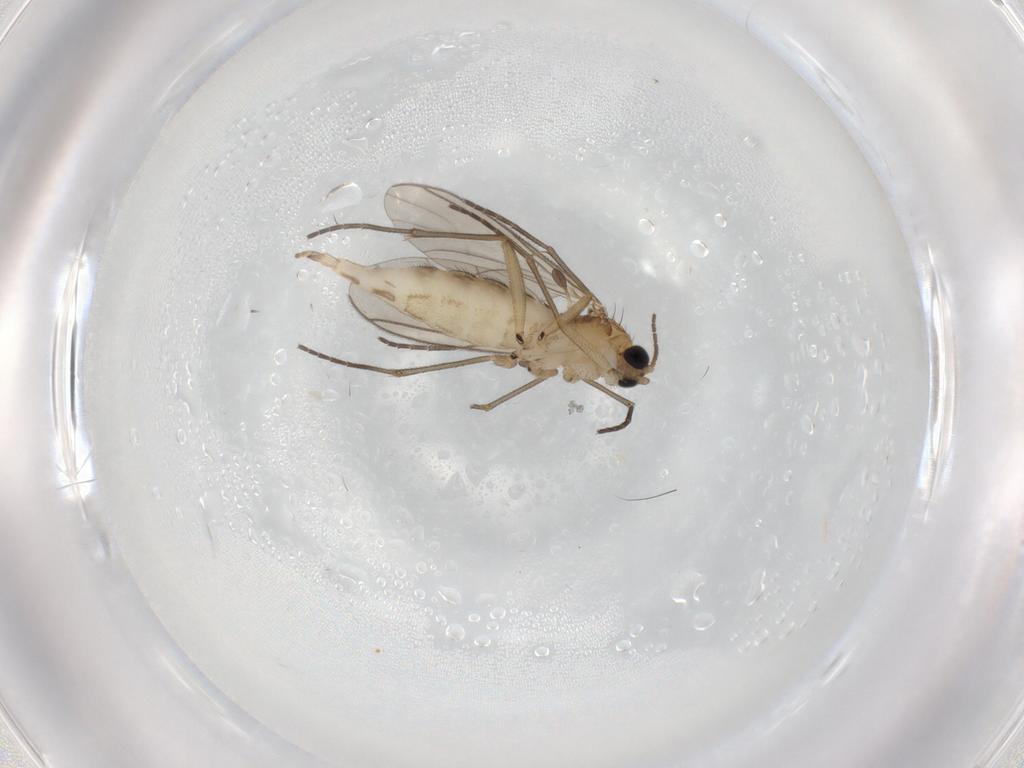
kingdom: Animalia
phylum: Arthropoda
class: Insecta
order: Diptera
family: Psychodidae
